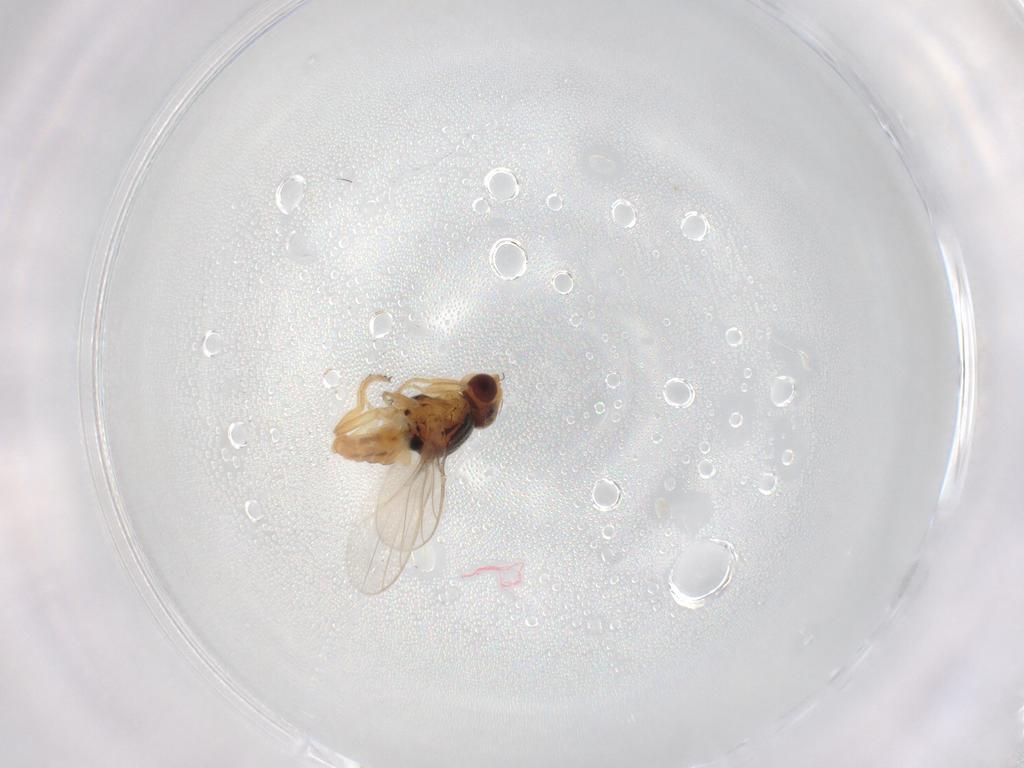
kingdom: Animalia
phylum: Arthropoda
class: Insecta
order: Diptera
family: Chloropidae
